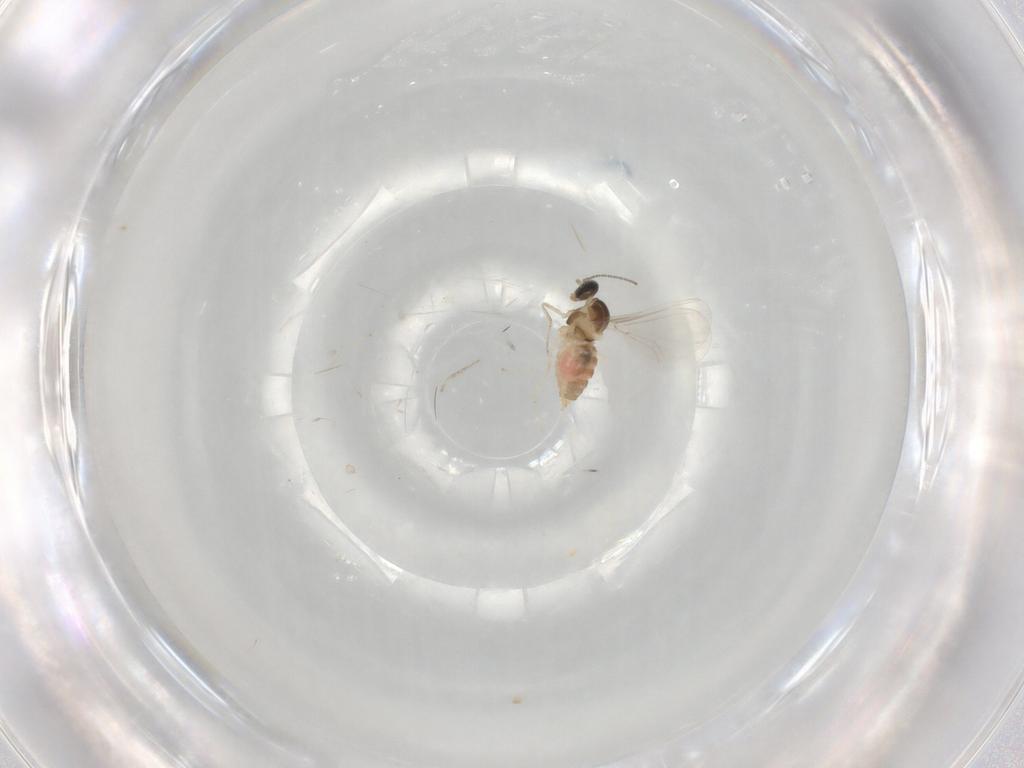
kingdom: Animalia
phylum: Arthropoda
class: Insecta
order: Diptera
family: Cecidomyiidae
